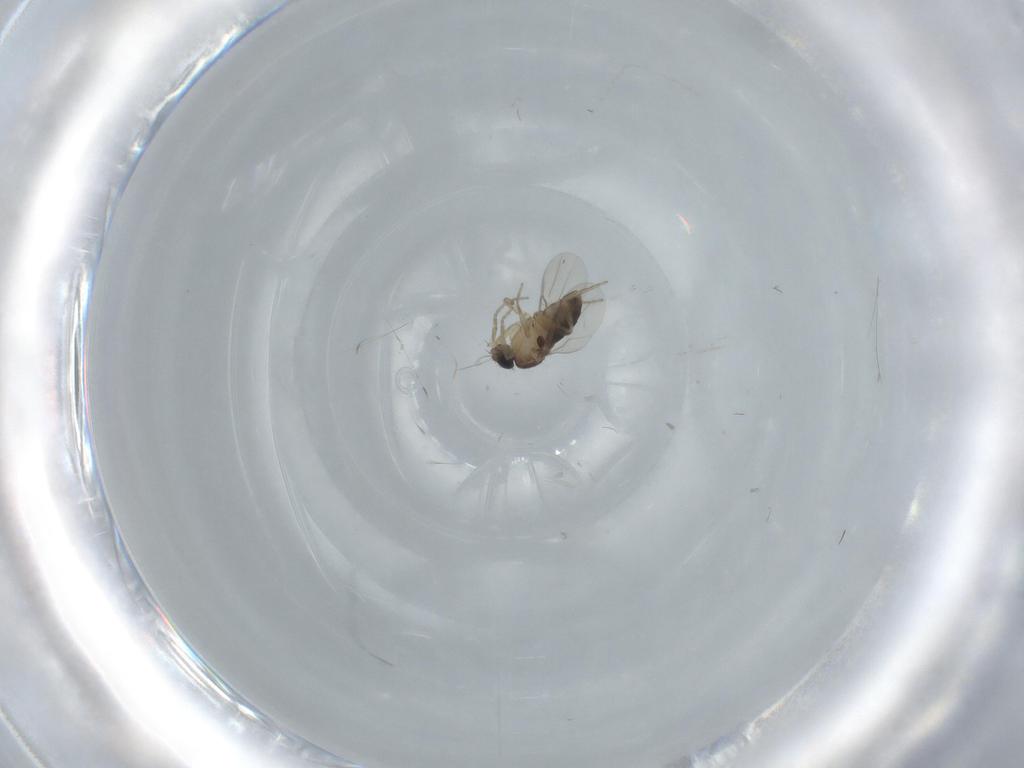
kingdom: Animalia
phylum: Arthropoda
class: Insecta
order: Diptera
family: Phoridae
